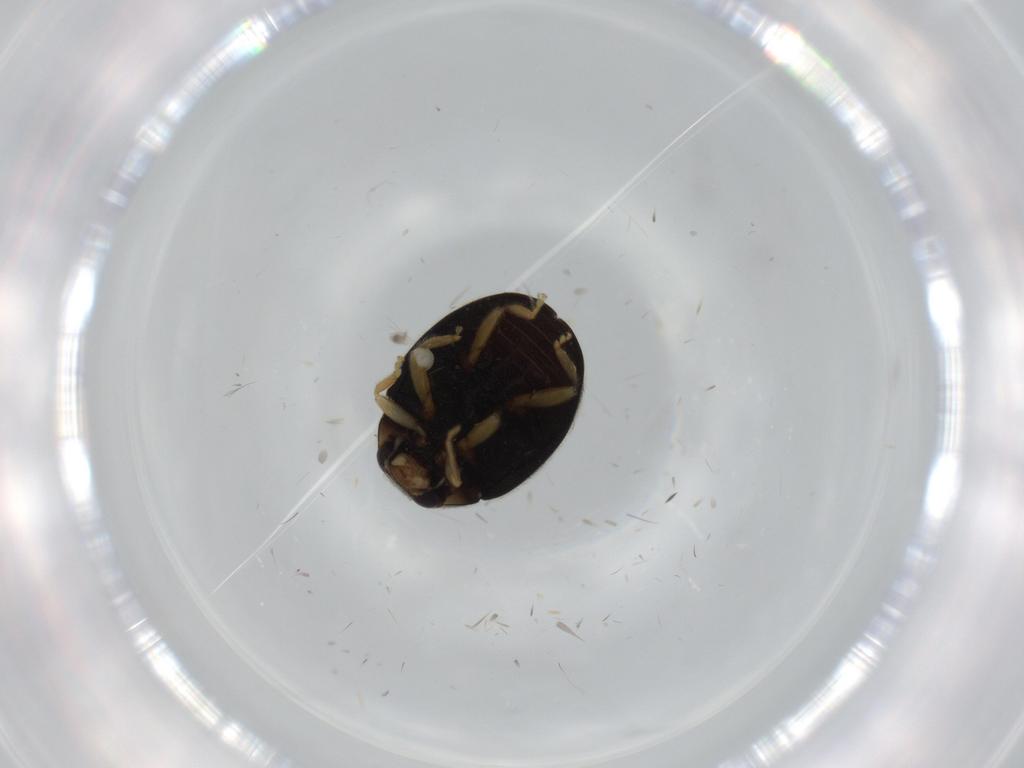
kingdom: Animalia
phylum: Arthropoda
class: Insecta
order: Coleoptera
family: Coccinellidae
